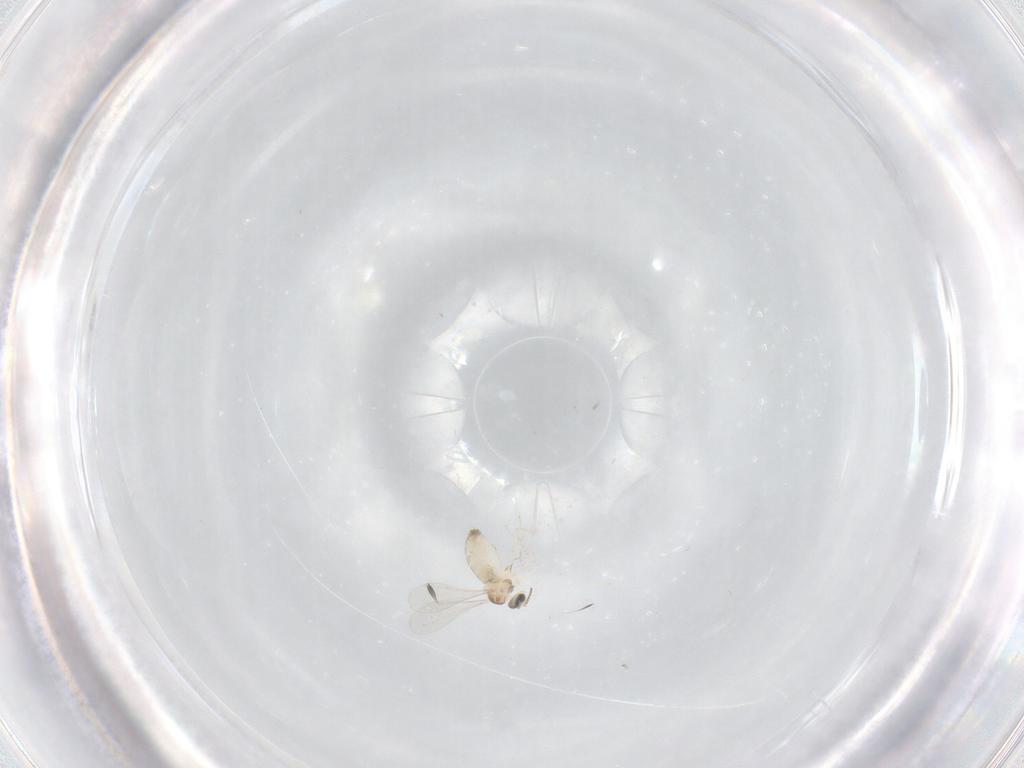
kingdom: Animalia
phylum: Arthropoda
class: Insecta
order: Diptera
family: Cecidomyiidae
